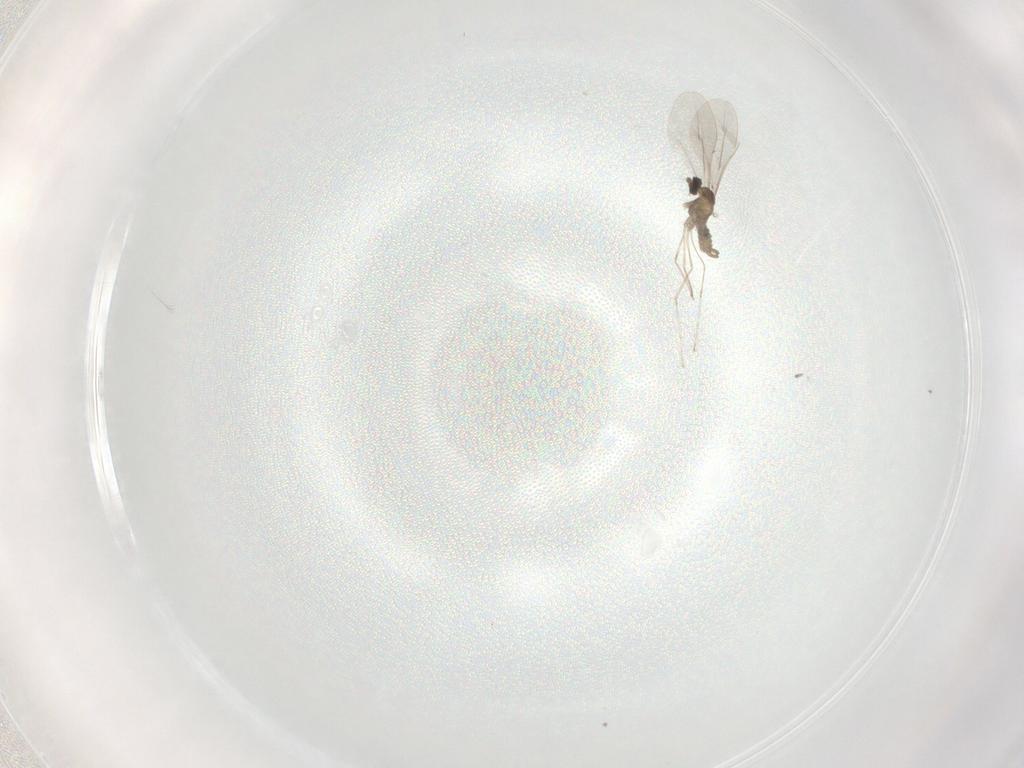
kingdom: Animalia
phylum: Arthropoda
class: Insecta
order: Diptera
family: Cecidomyiidae
